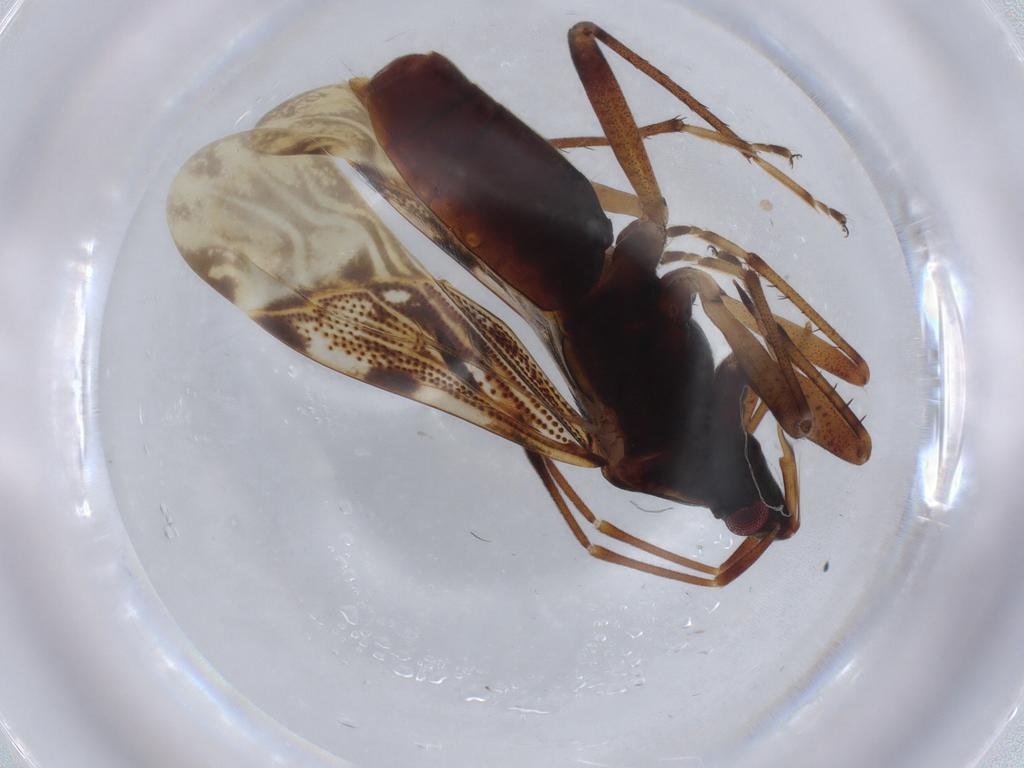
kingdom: Animalia
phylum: Arthropoda
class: Insecta
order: Hemiptera
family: Rhyparochromidae
